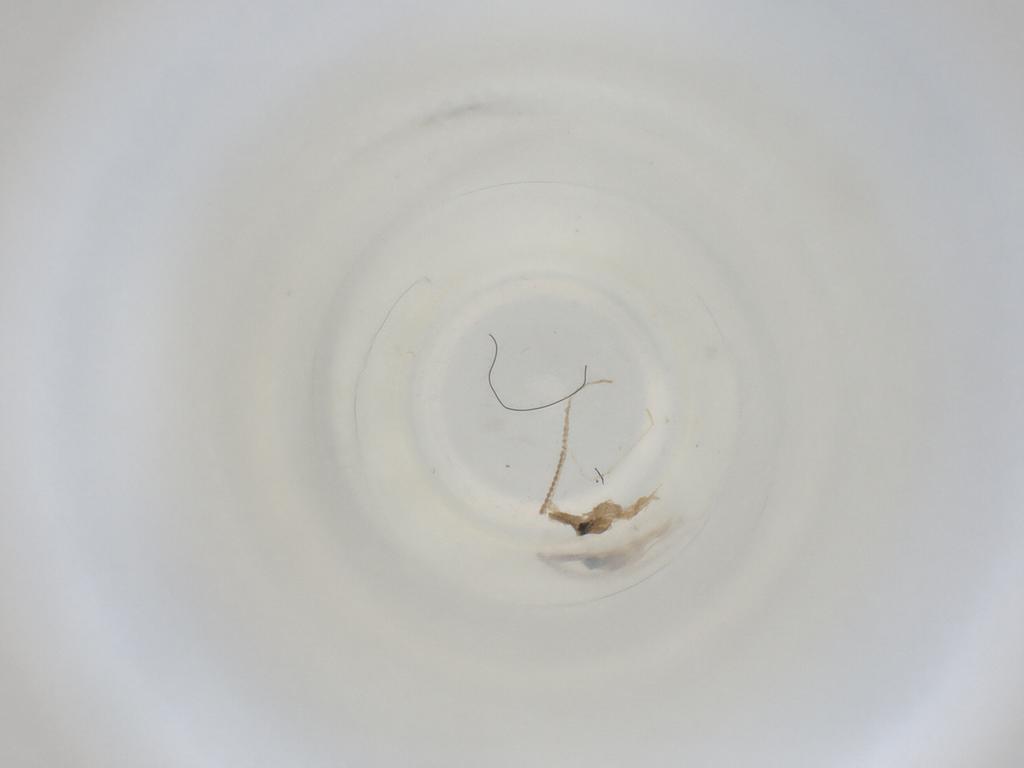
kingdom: Animalia
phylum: Arthropoda
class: Insecta
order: Diptera
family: Cecidomyiidae
